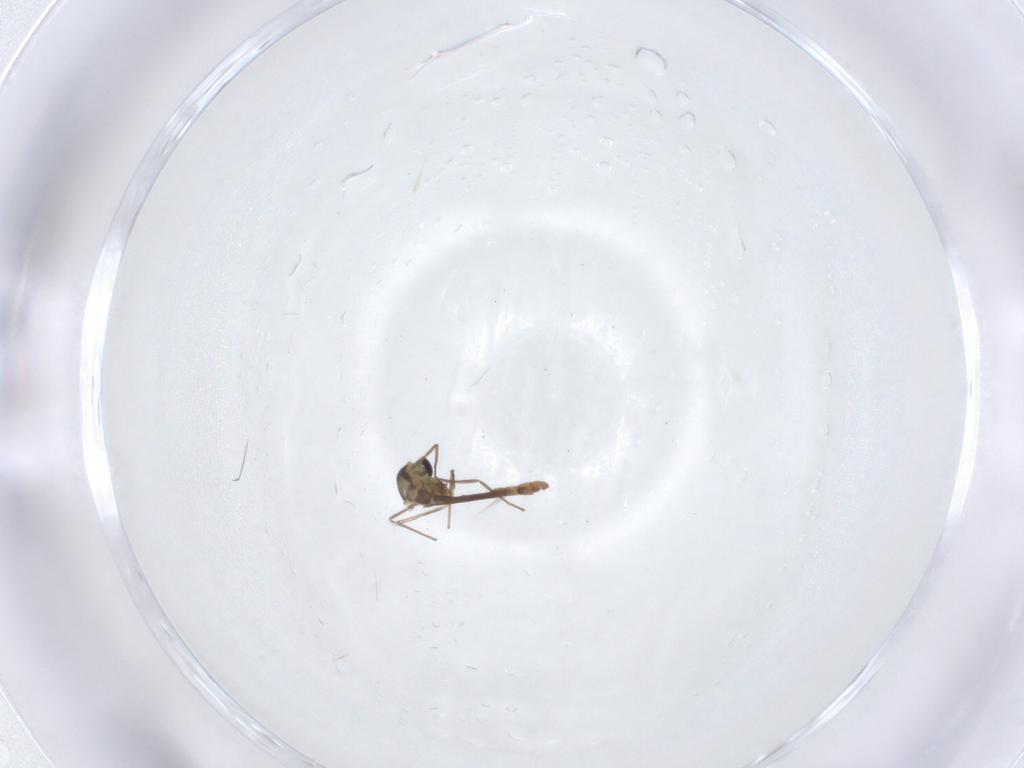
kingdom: Animalia
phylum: Arthropoda
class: Insecta
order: Diptera
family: Chironomidae
